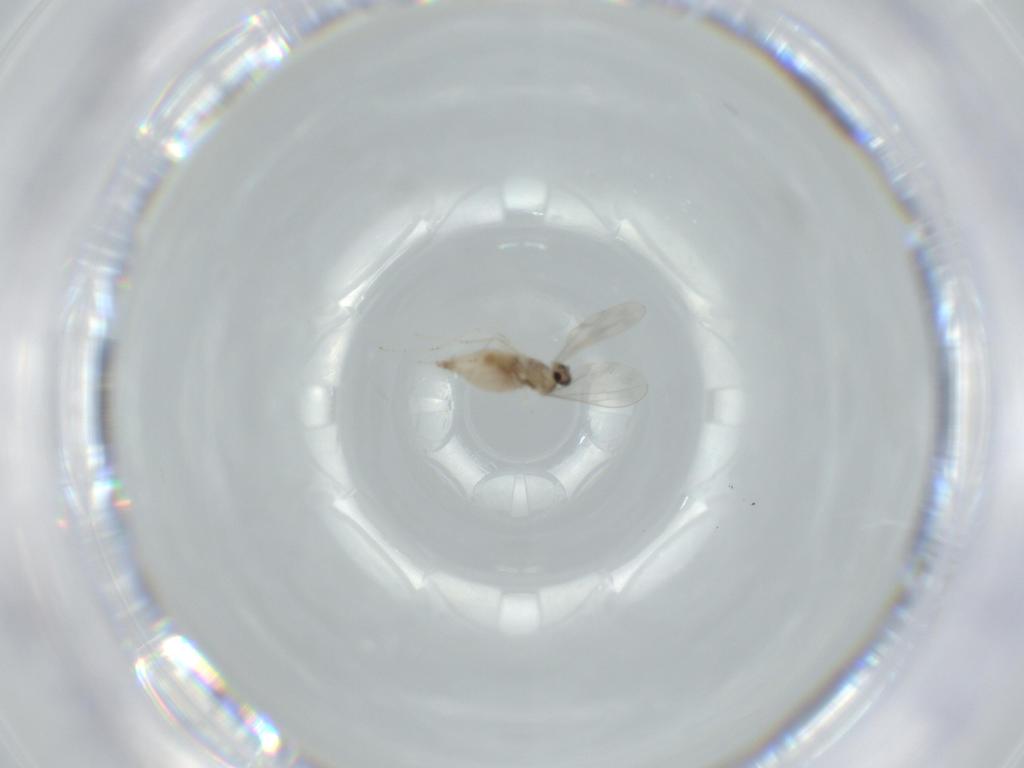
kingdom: Animalia
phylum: Arthropoda
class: Insecta
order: Diptera
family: Cecidomyiidae
